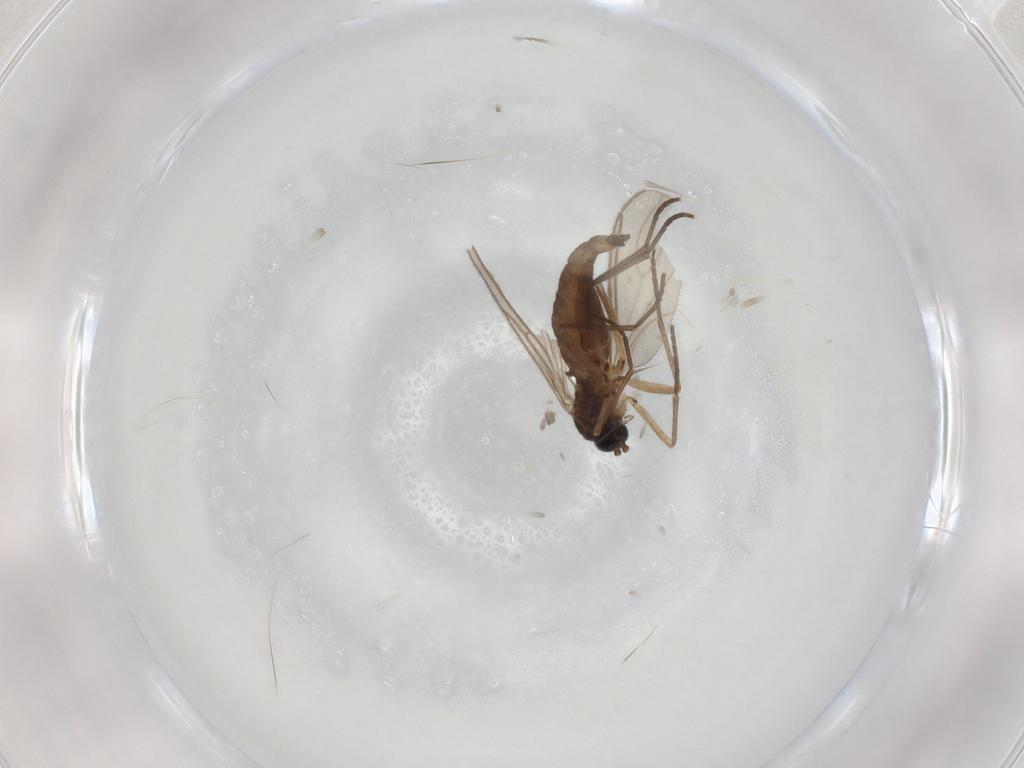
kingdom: Animalia
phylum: Arthropoda
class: Insecta
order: Diptera
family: Sciaridae
